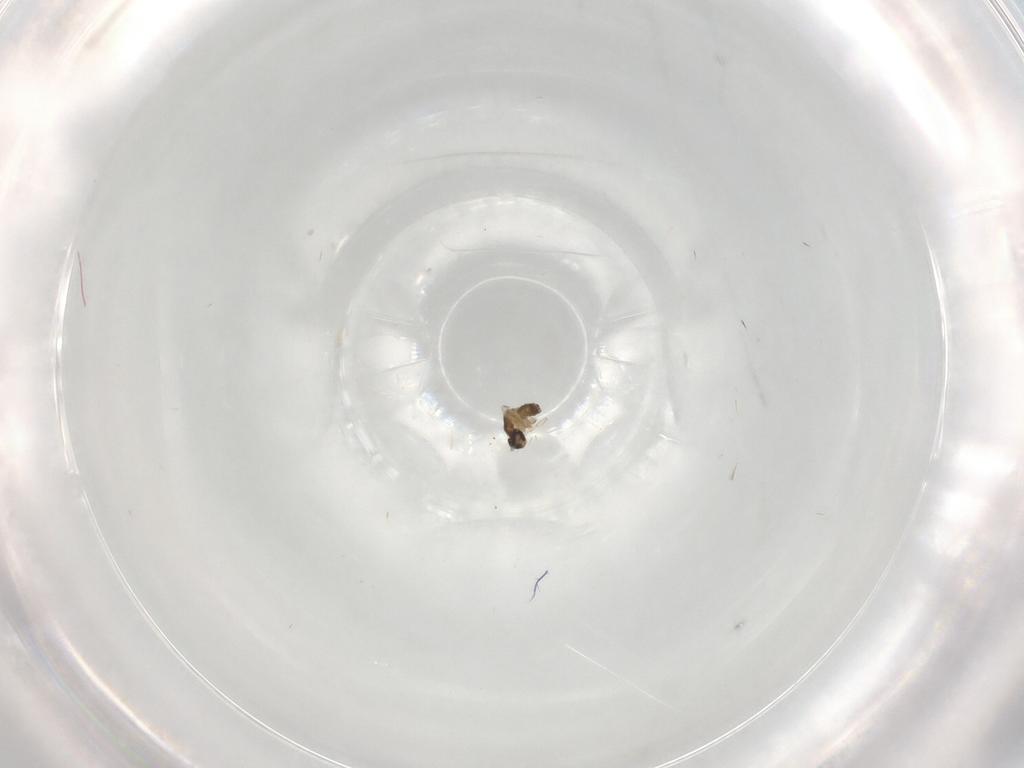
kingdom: Animalia
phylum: Arthropoda
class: Insecta
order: Diptera
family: Cecidomyiidae
